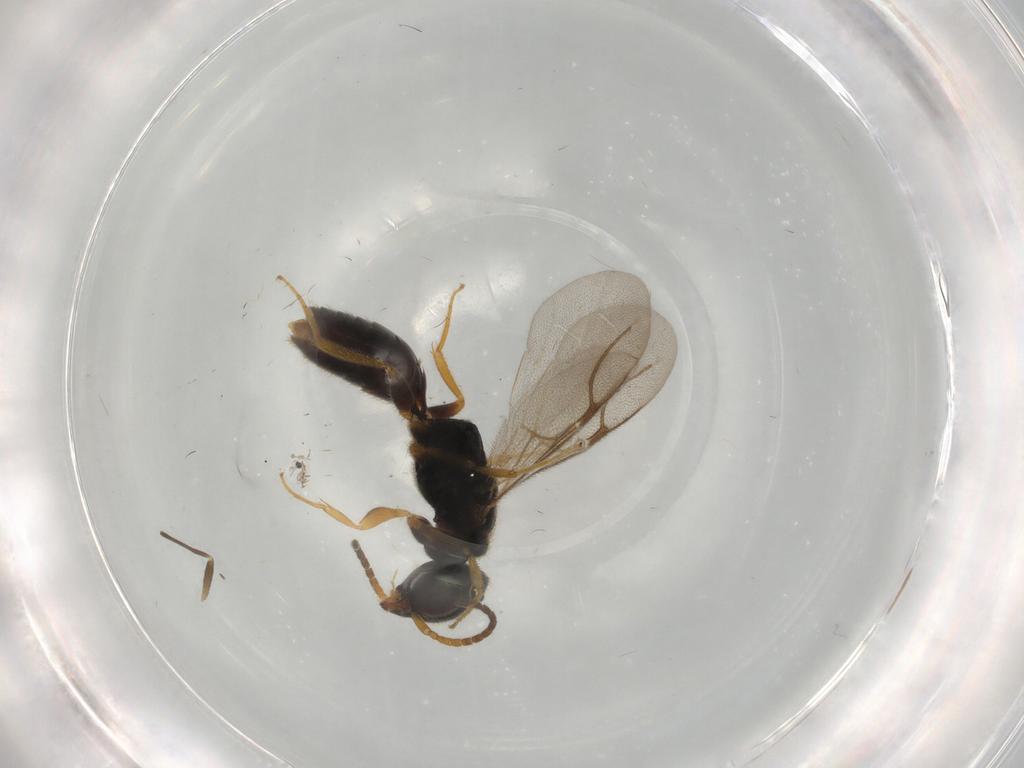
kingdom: Animalia
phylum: Arthropoda
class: Insecta
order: Hymenoptera
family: Bethylidae
